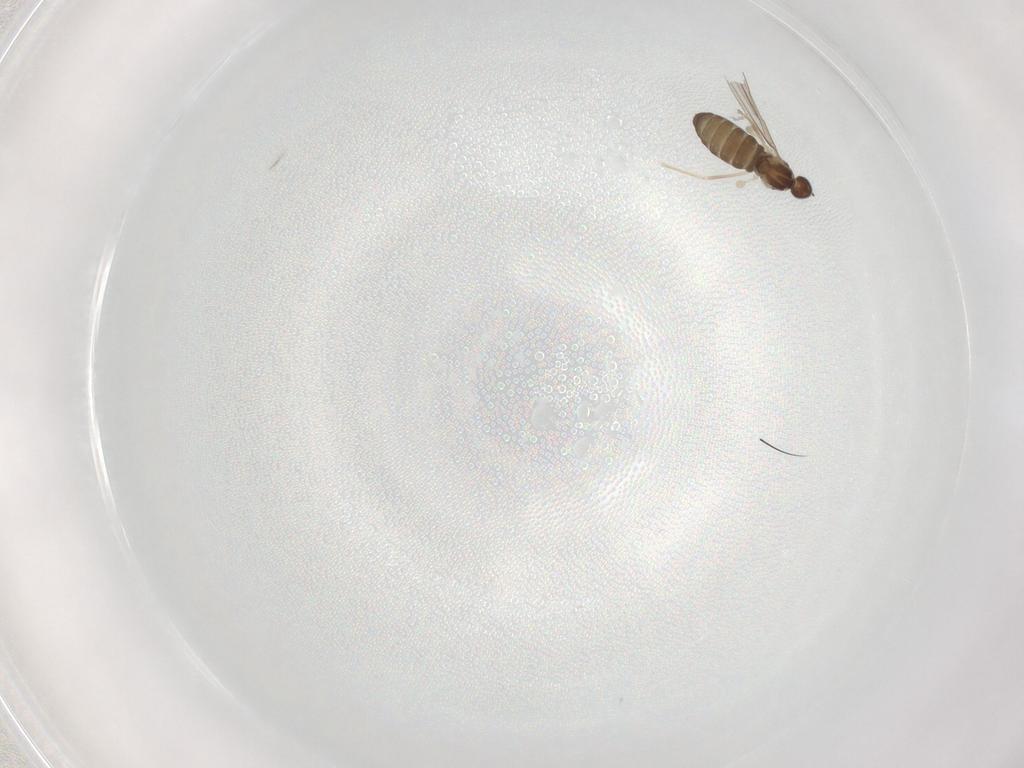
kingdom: Animalia
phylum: Arthropoda
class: Insecta
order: Diptera
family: Cecidomyiidae
